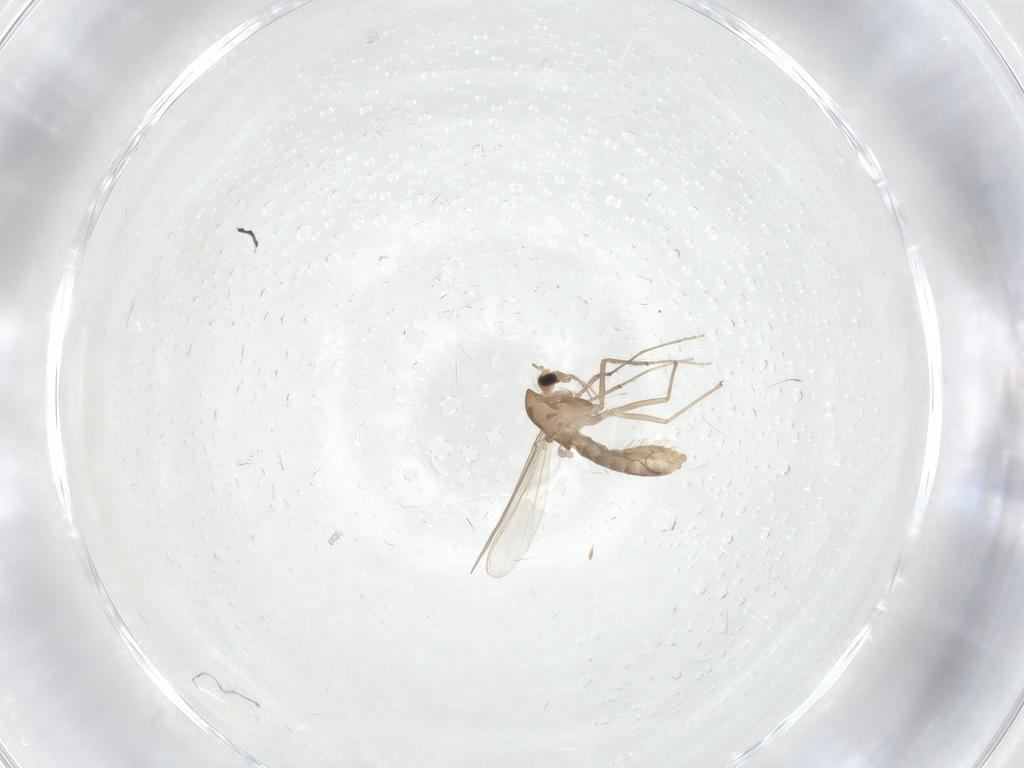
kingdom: Animalia
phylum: Arthropoda
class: Insecta
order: Diptera
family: Chironomidae
